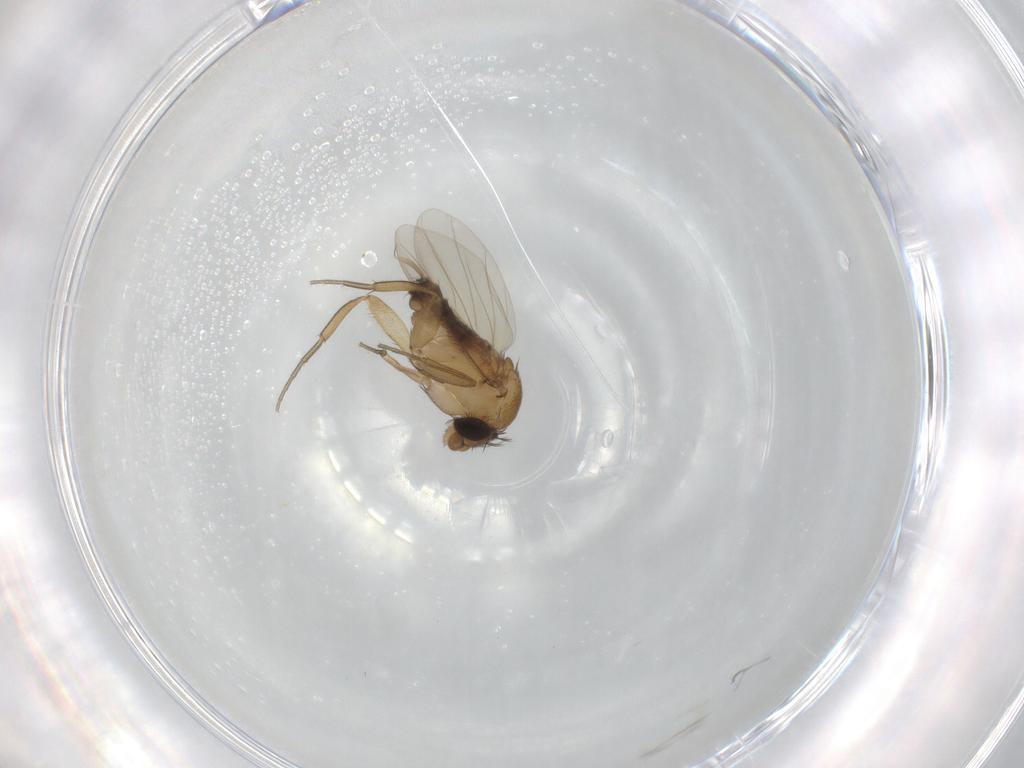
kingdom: Animalia
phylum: Arthropoda
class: Insecta
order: Diptera
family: Phoridae
